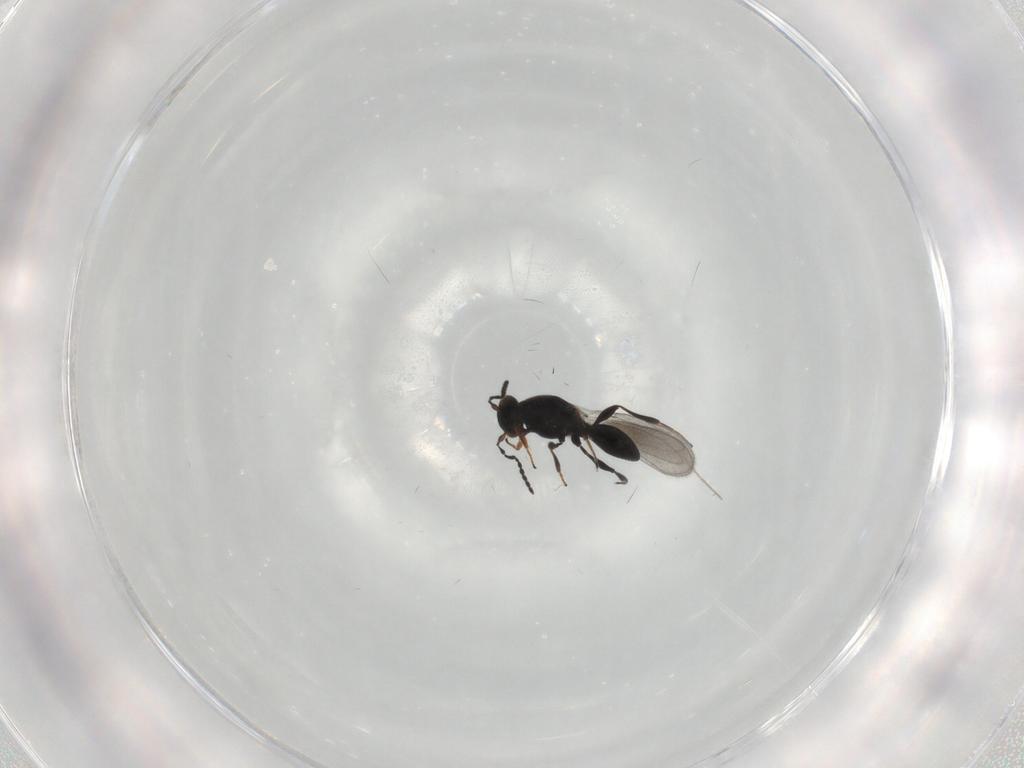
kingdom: Animalia
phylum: Arthropoda
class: Insecta
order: Hymenoptera
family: Platygastridae
